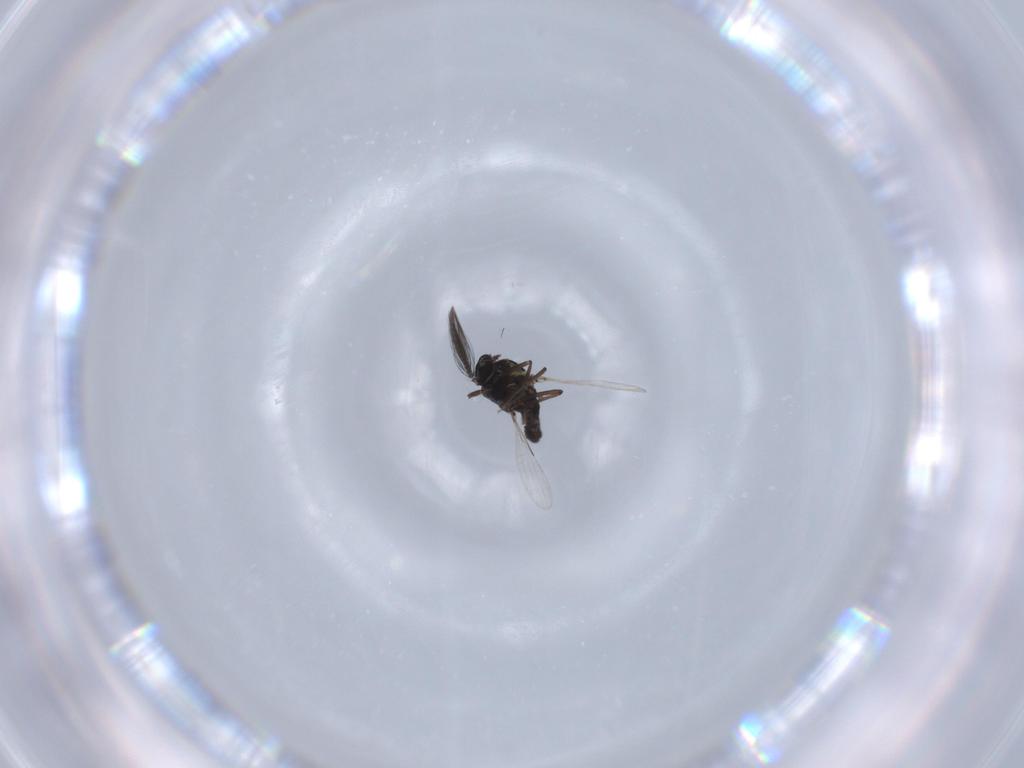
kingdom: Animalia
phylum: Arthropoda
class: Insecta
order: Diptera
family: Ceratopogonidae
